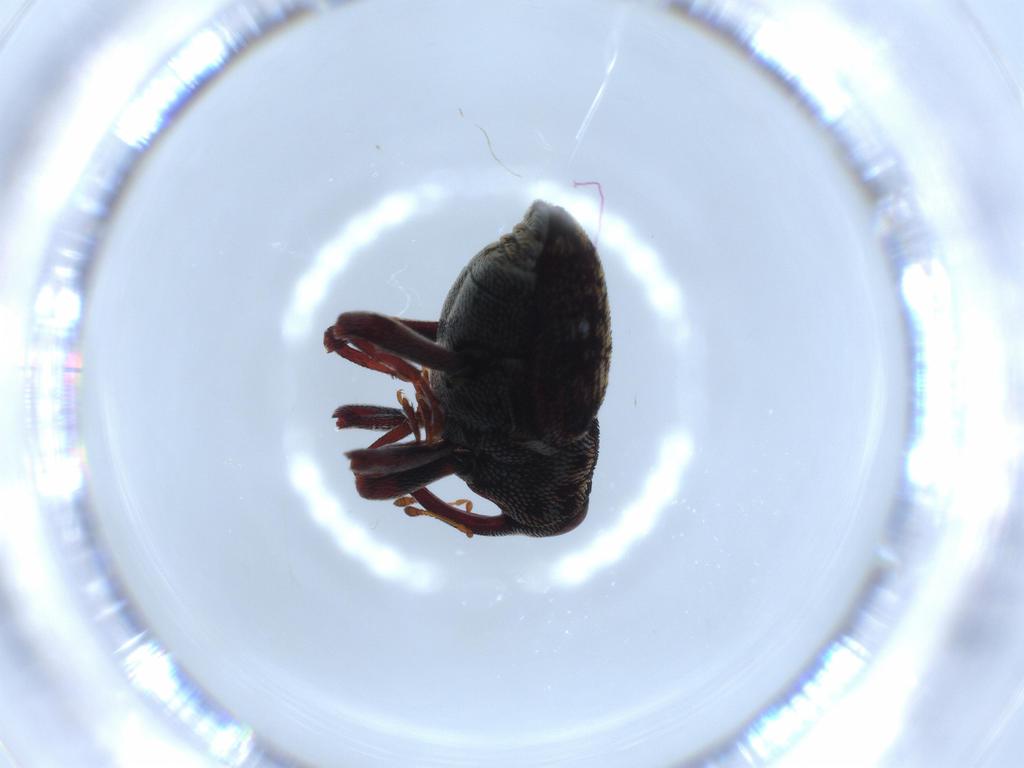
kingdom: Animalia
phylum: Arthropoda
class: Insecta
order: Coleoptera
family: Curculionidae
